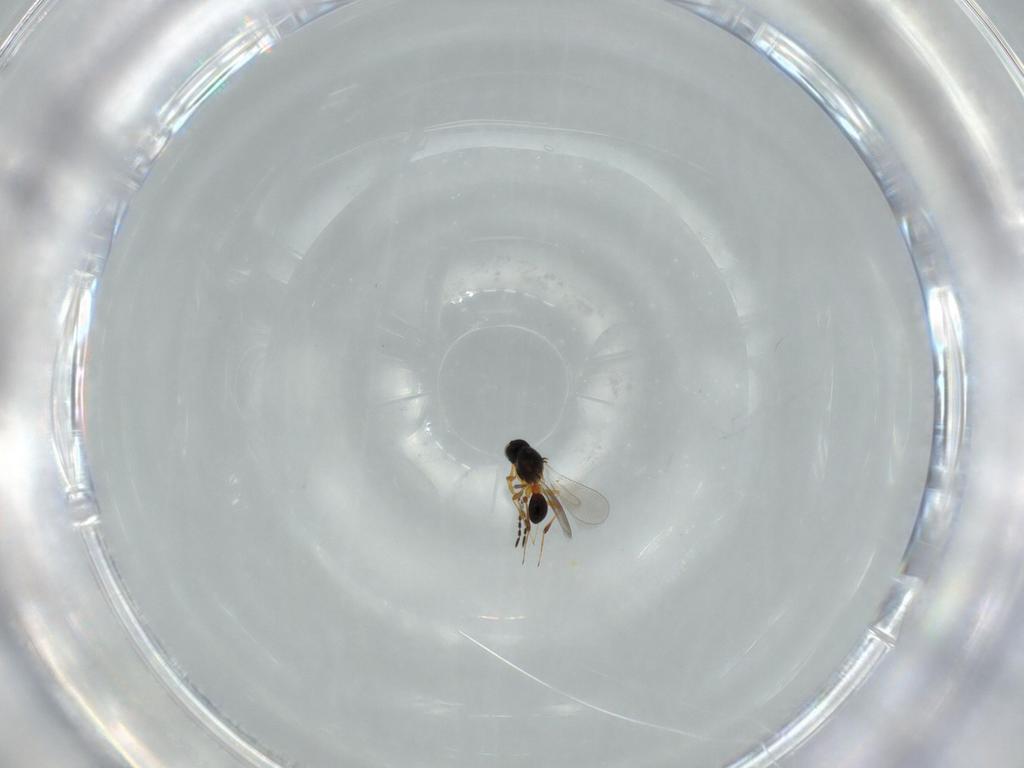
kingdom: Animalia
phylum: Arthropoda
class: Insecta
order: Hymenoptera
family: Platygastridae
